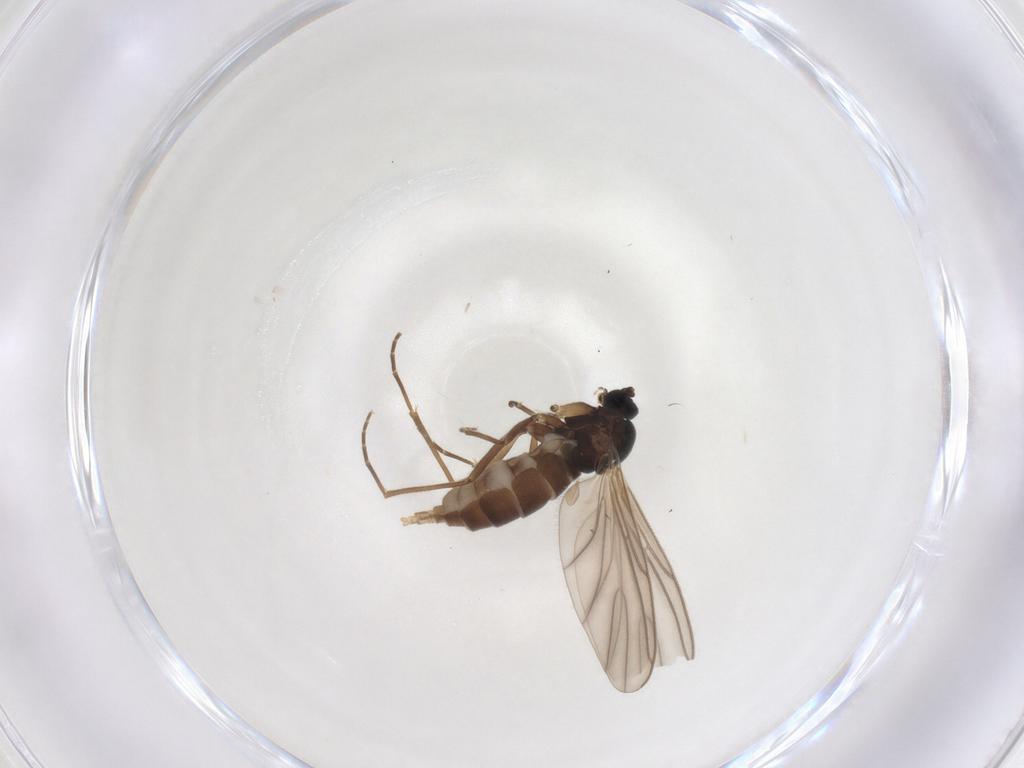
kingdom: Animalia
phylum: Arthropoda
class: Insecta
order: Diptera
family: Sciaridae
